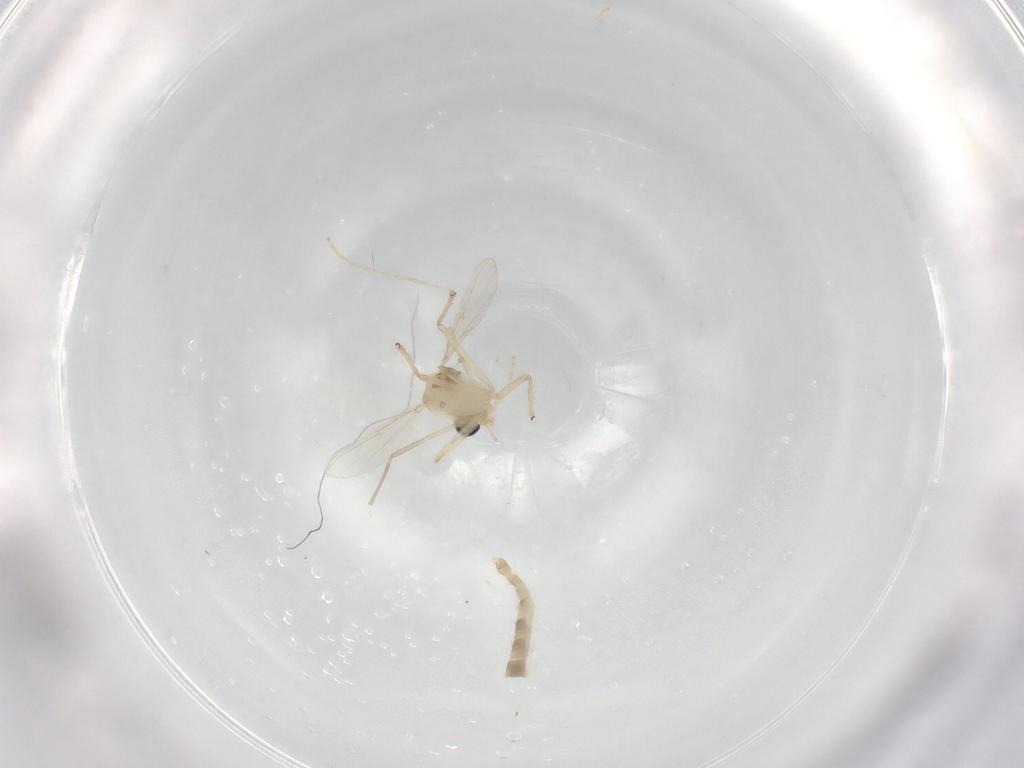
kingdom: Animalia
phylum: Arthropoda
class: Insecta
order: Diptera
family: Chironomidae
